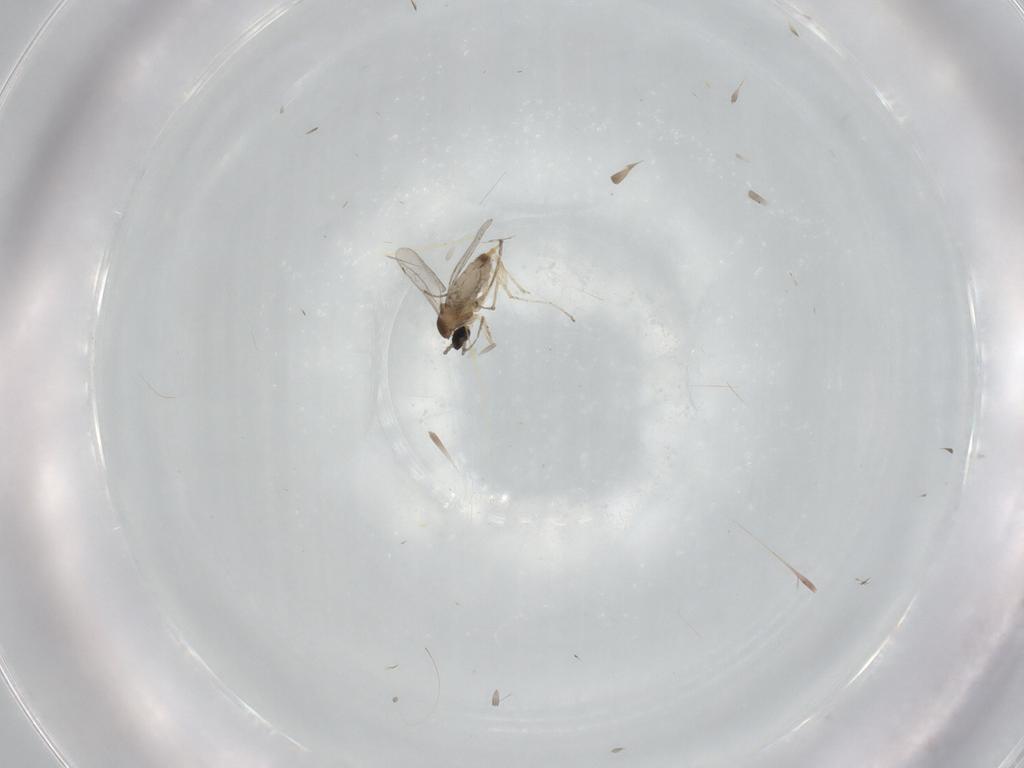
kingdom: Animalia
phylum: Arthropoda
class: Insecta
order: Diptera
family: Cecidomyiidae
